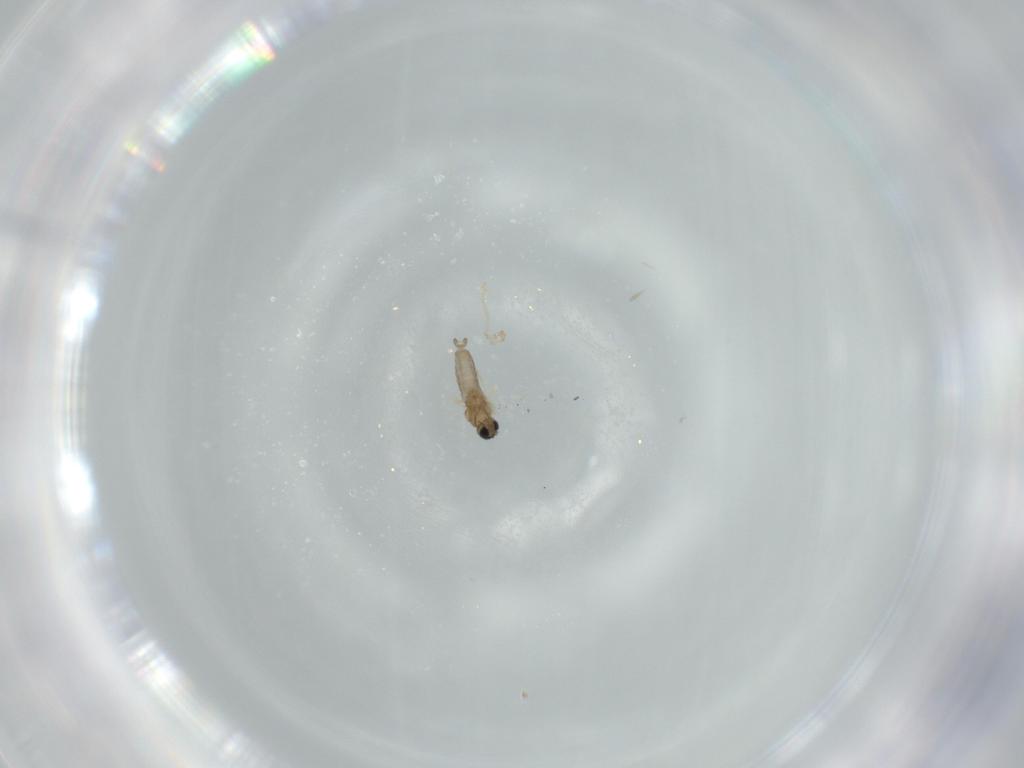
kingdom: Animalia
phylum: Arthropoda
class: Insecta
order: Diptera
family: Cecidomyiidae
